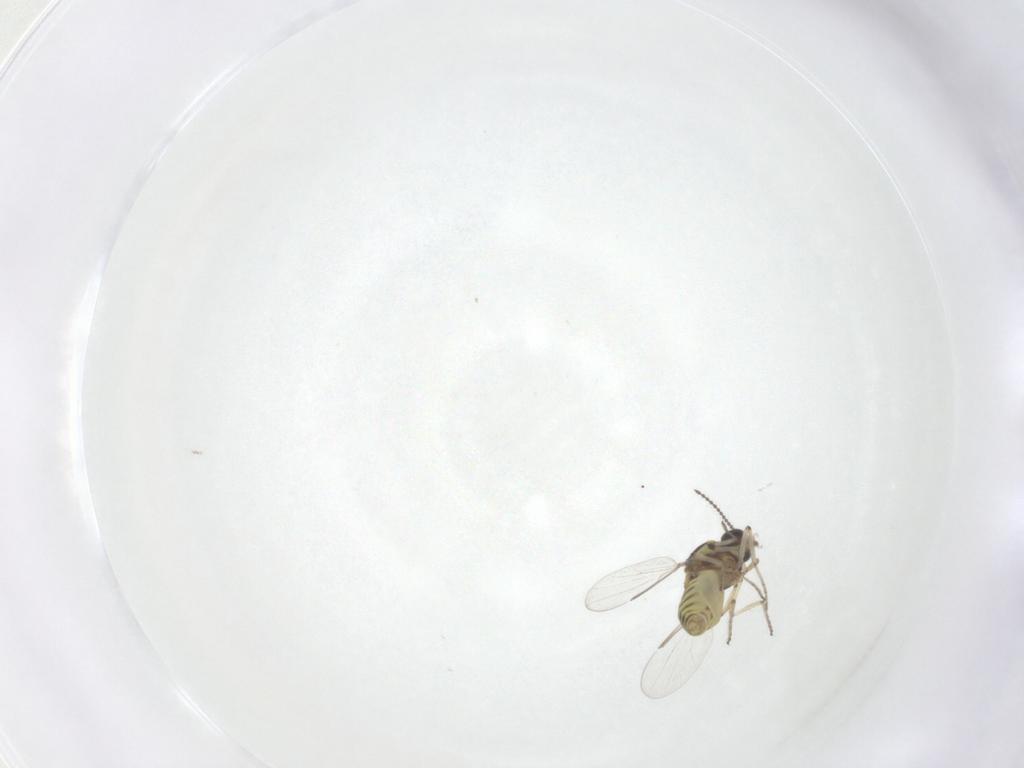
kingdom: Animalia
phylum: Arthropoda
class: Insecta
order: Diptera
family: Ceratopogonidae
